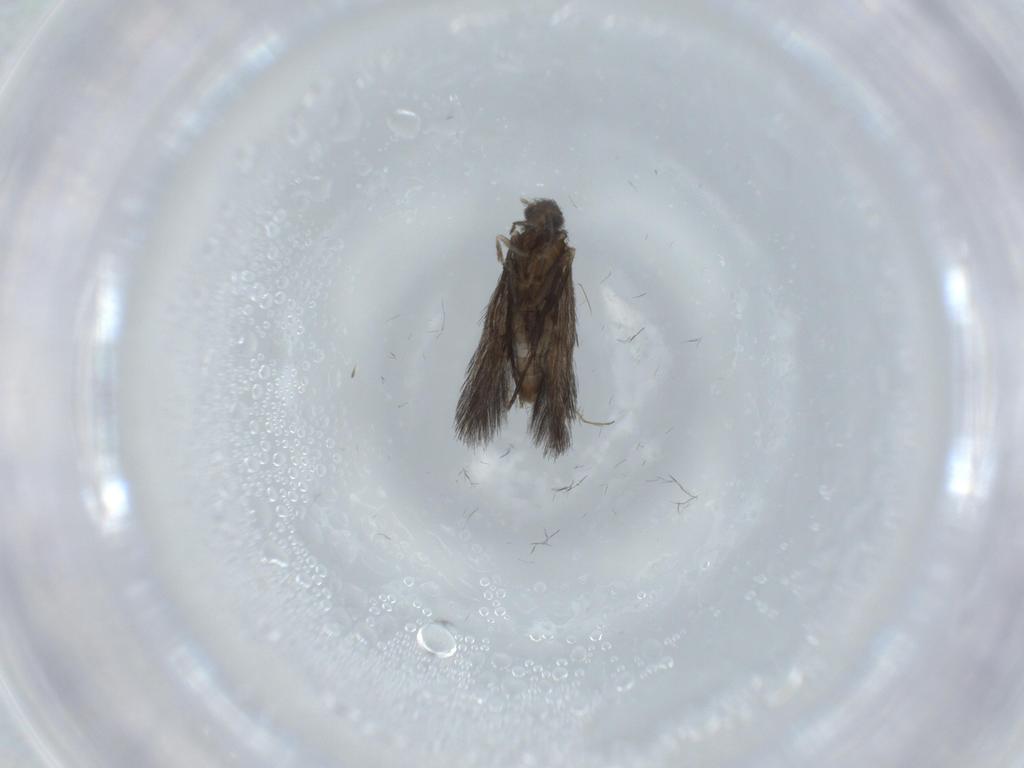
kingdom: Animalia
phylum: Arthropoda
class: Insecta
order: Trichoptera
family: Hydroptilidae
